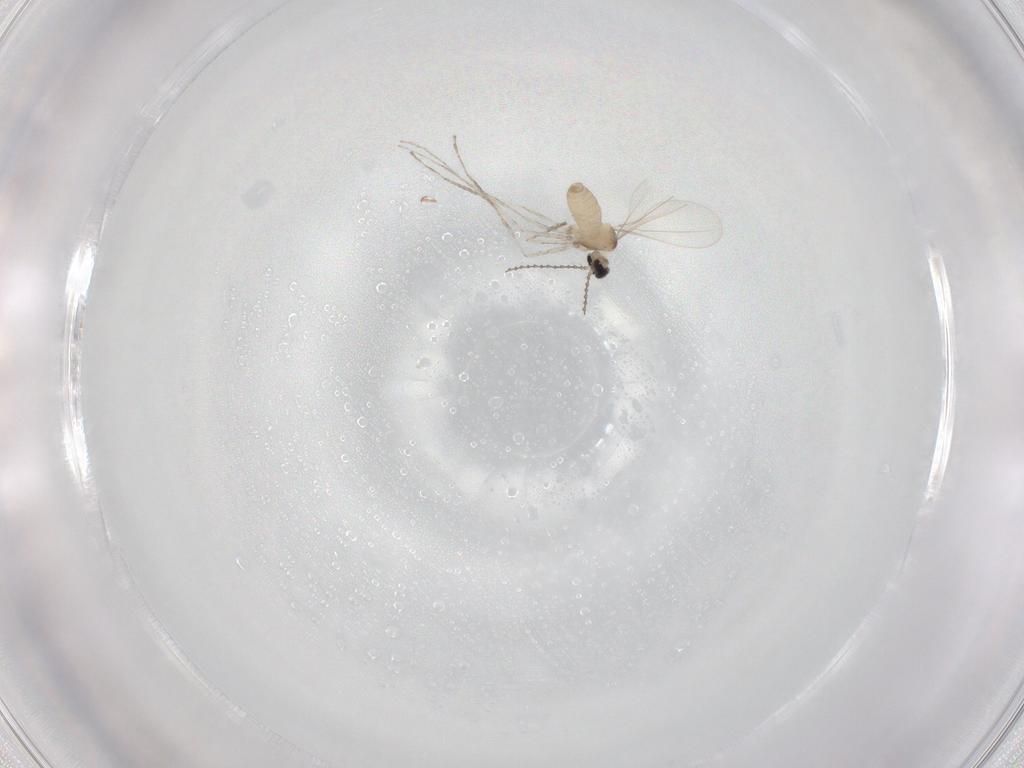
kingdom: Animalia
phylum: Arthropoda
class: Insecta
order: Diptera
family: Cecidomyiidae
